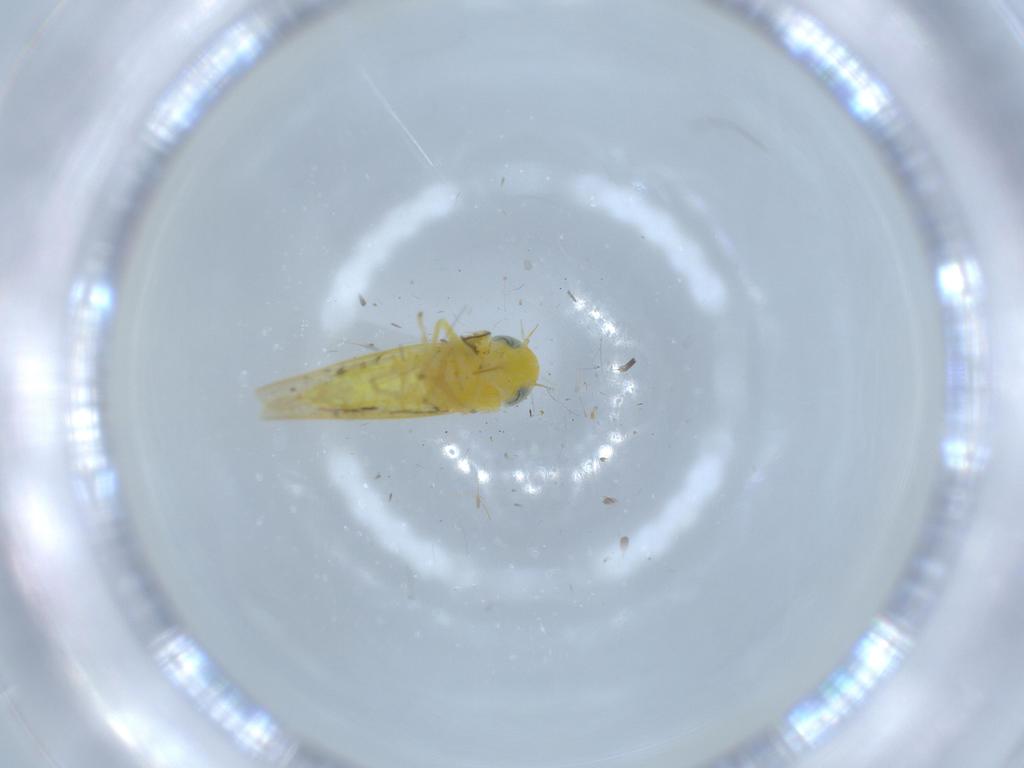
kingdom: Animalia
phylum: Arthropoda
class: Insecta
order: Hemiptera
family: Cicadellidae
